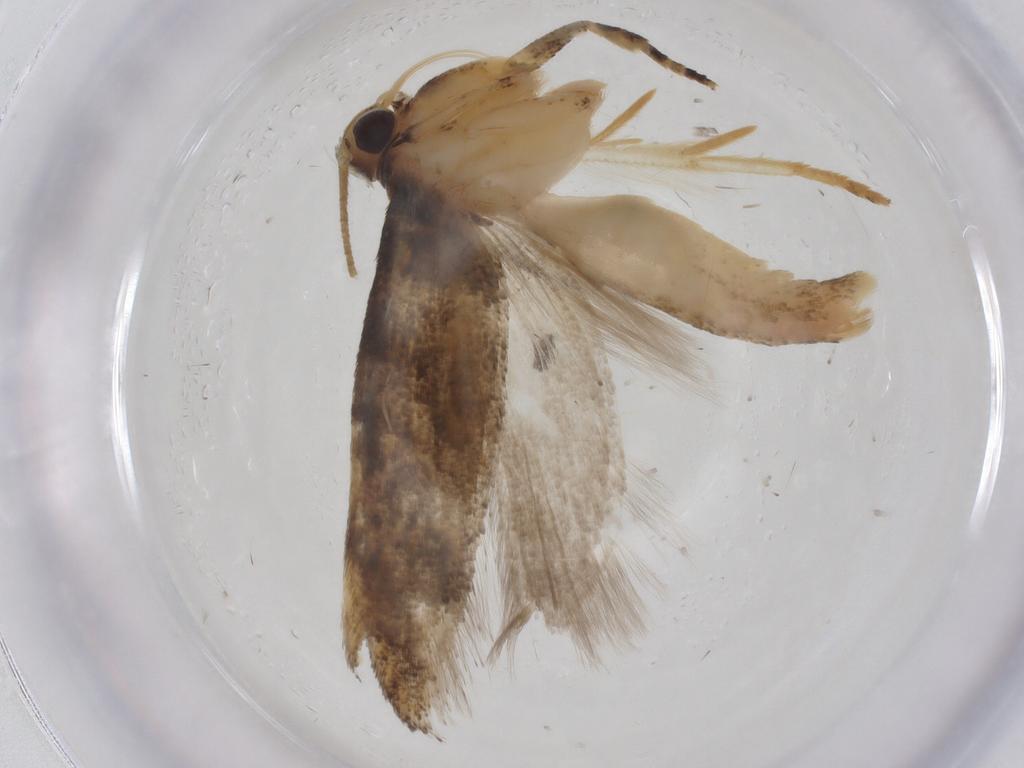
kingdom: Animalia
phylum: Arthropoda
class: Insecta
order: Lepidoptera
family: Gelechiidae
